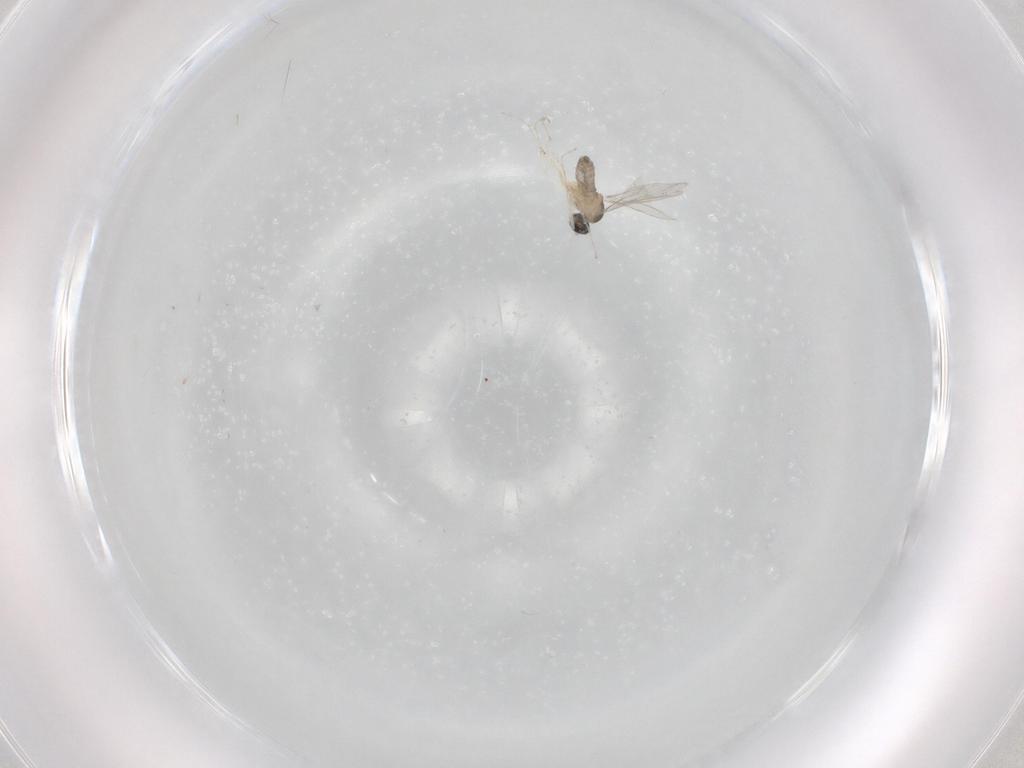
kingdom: Animalia
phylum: Arthropoda
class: Insecta
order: Diptera
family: Cecidomyiidae
